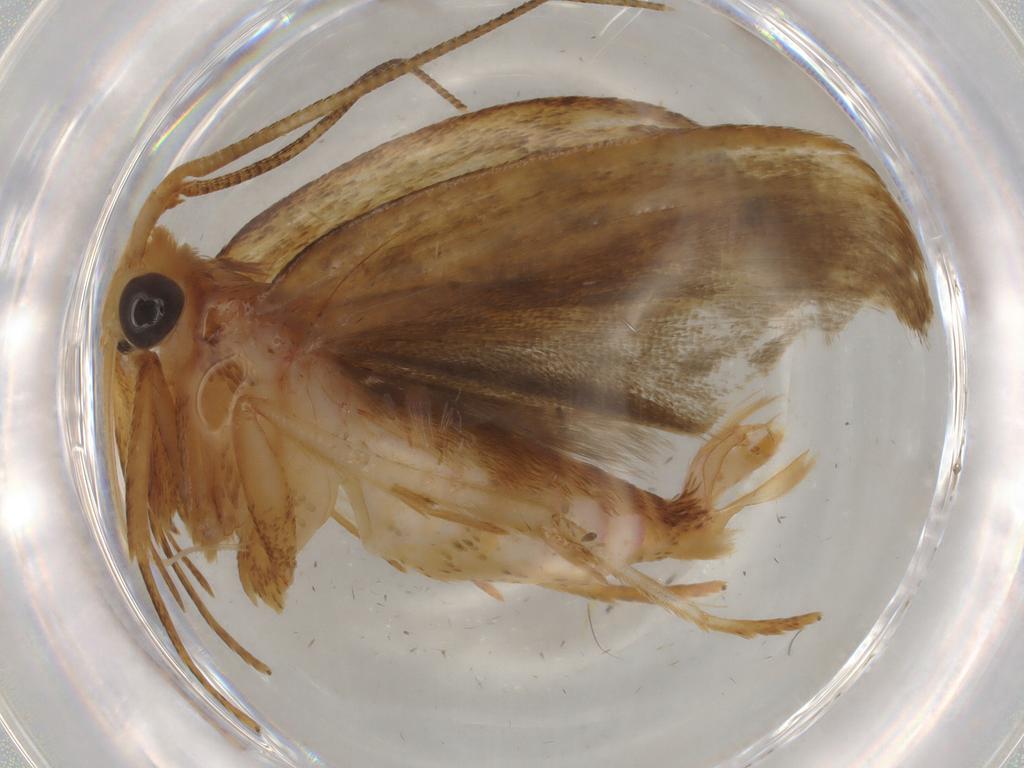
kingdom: Animalia
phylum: Arthropoda
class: Insecta
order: Lepidoptera
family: Autostichidae
